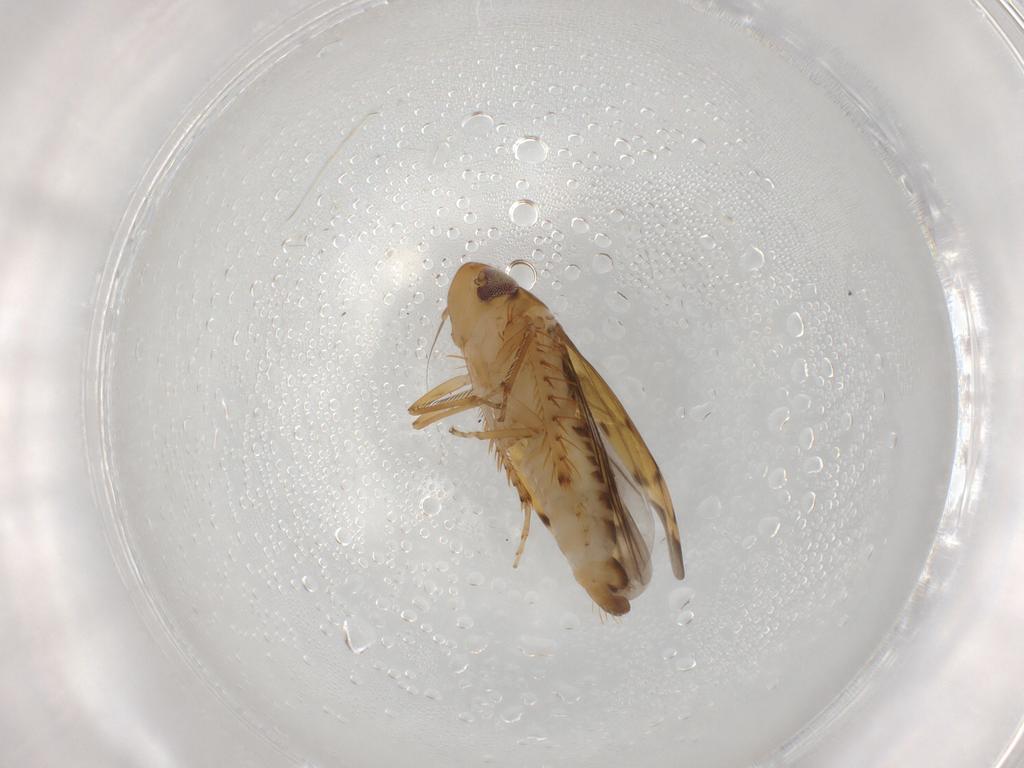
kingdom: Animalia
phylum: Arthropoda
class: Insecta
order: Hemiptera
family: Cicadellidae
